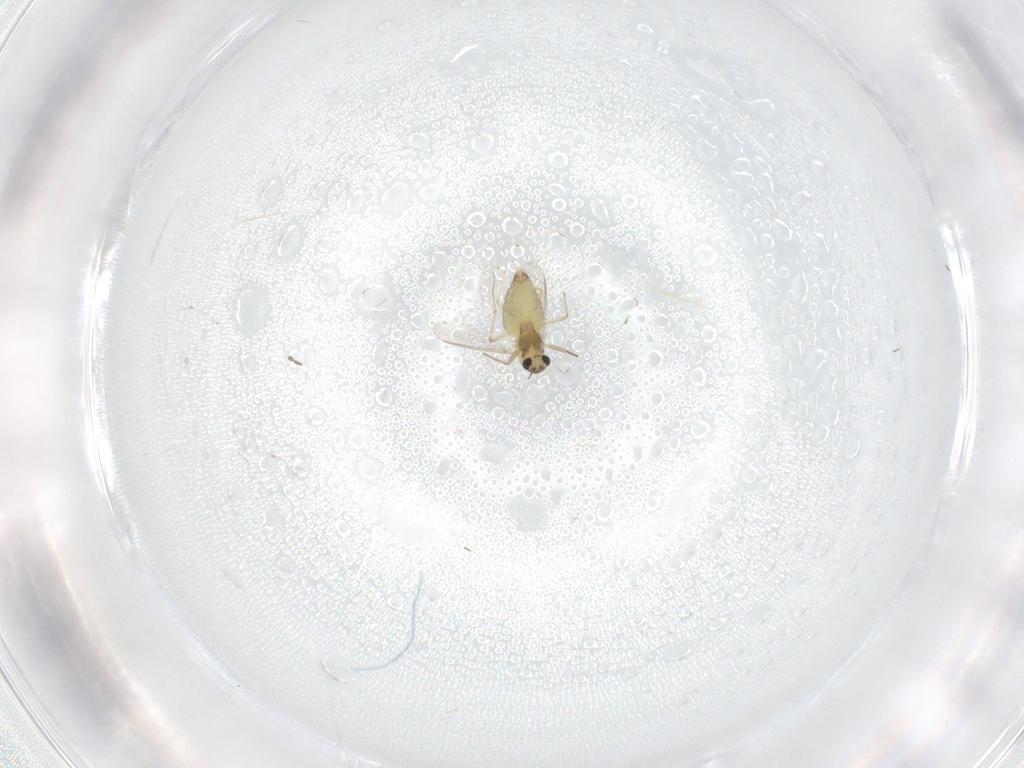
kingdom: Animalia
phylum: Arthropoda
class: Insecta
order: Diptera
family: Chironomidae
